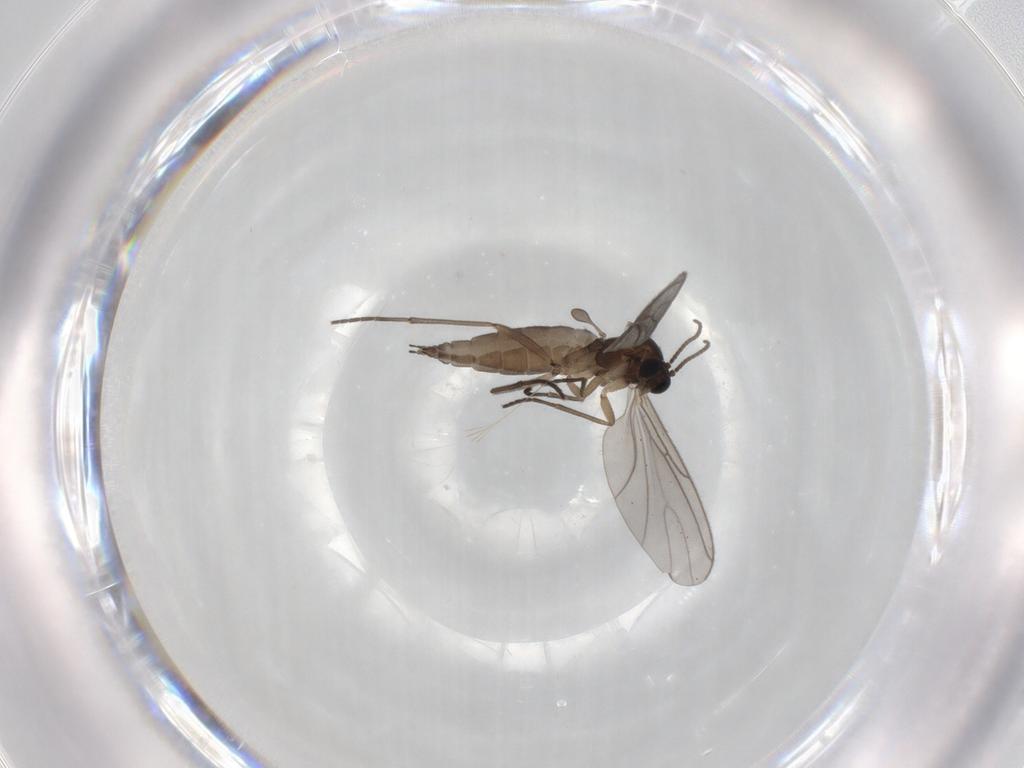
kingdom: Animalia
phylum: Arthropoda
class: Insecta
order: Diptera
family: Sciaridae
